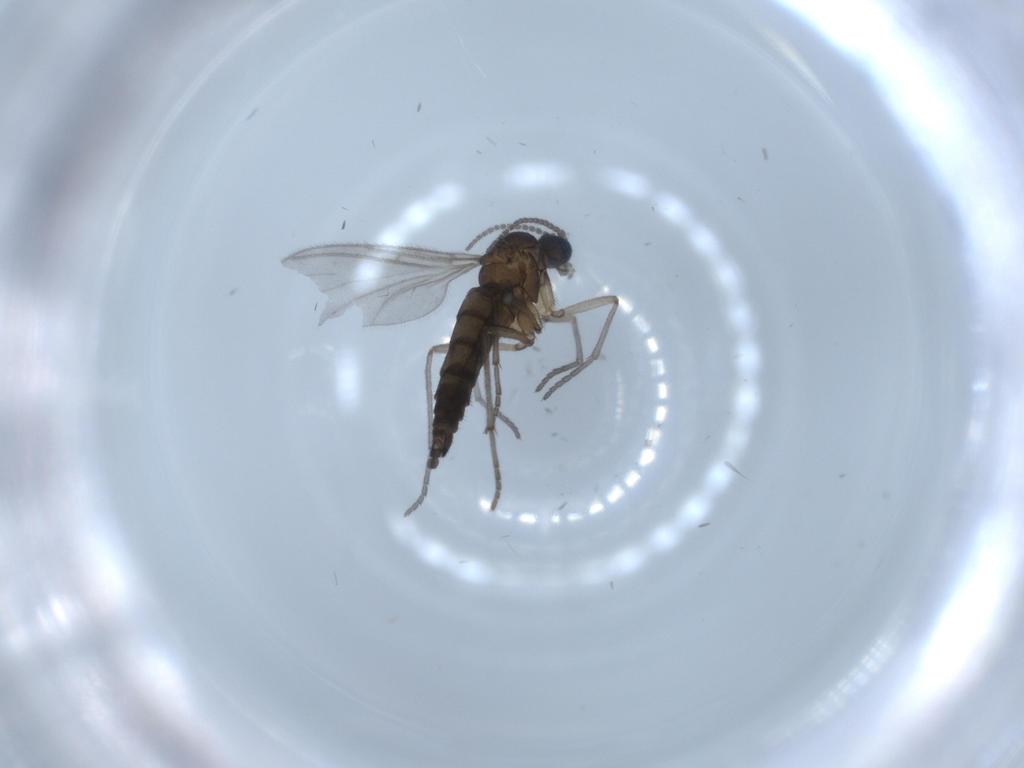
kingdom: Animalia
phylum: Arthropoda
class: Insecta
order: Diptera
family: Sciaridae
